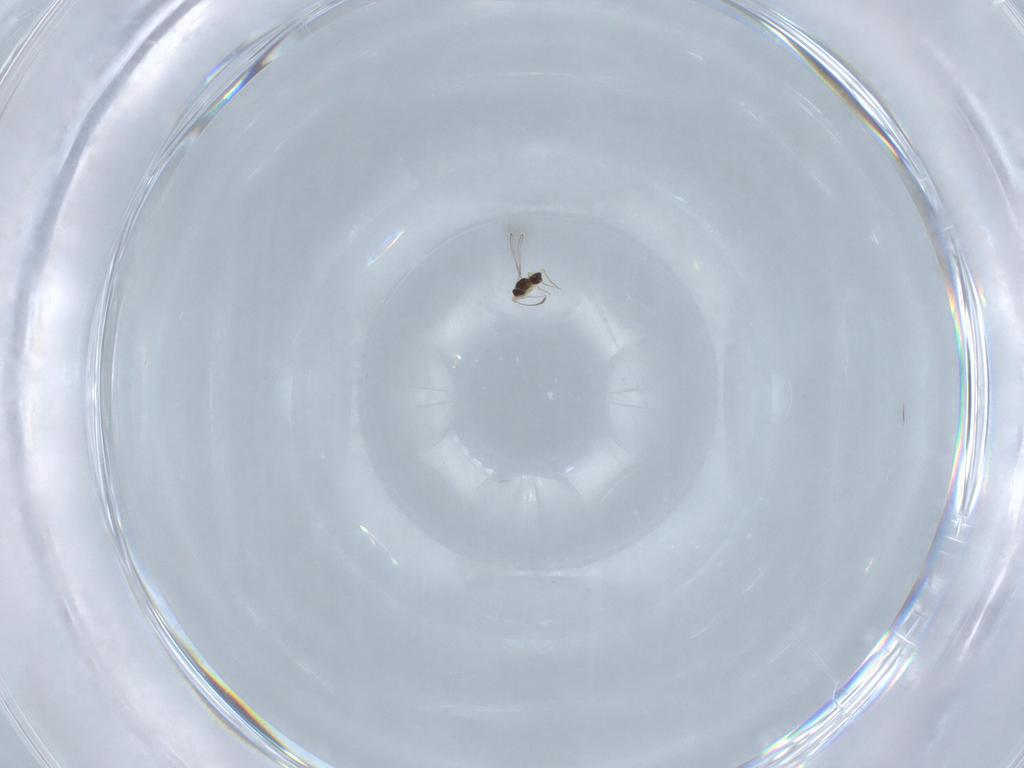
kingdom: Animalia
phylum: Arthropoda
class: Insecta
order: Hymenoptera
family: Mymaridae
